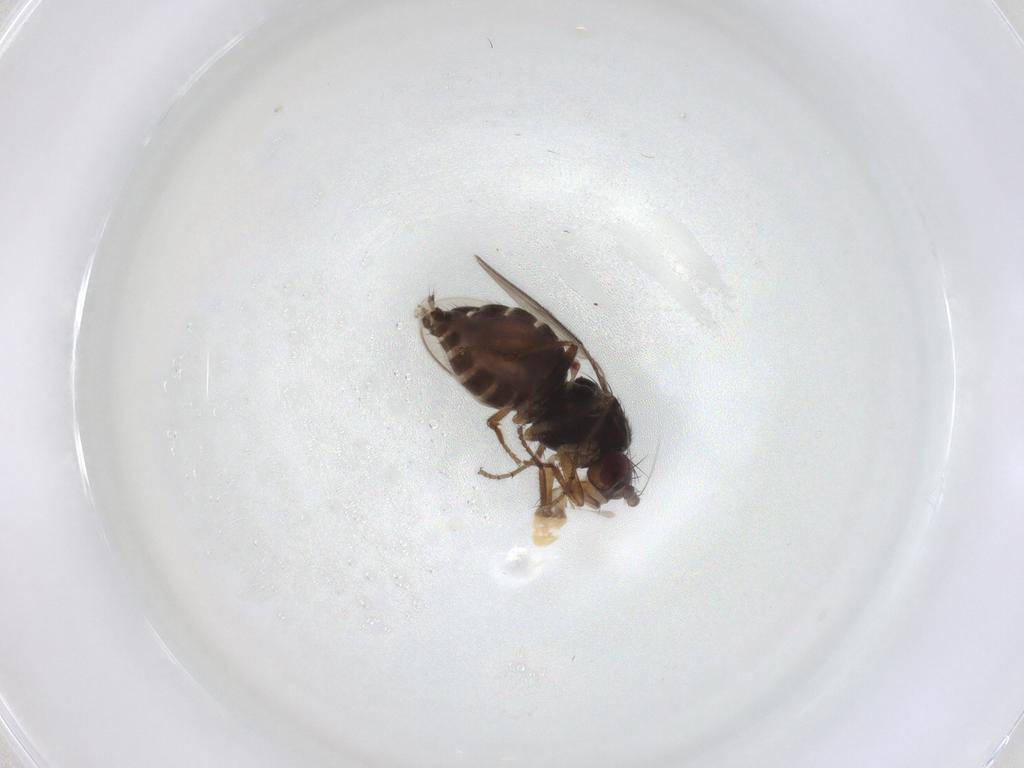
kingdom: Animalia
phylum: Arthropoda
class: Insecta
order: Diptera
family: Sphaeroceridae
